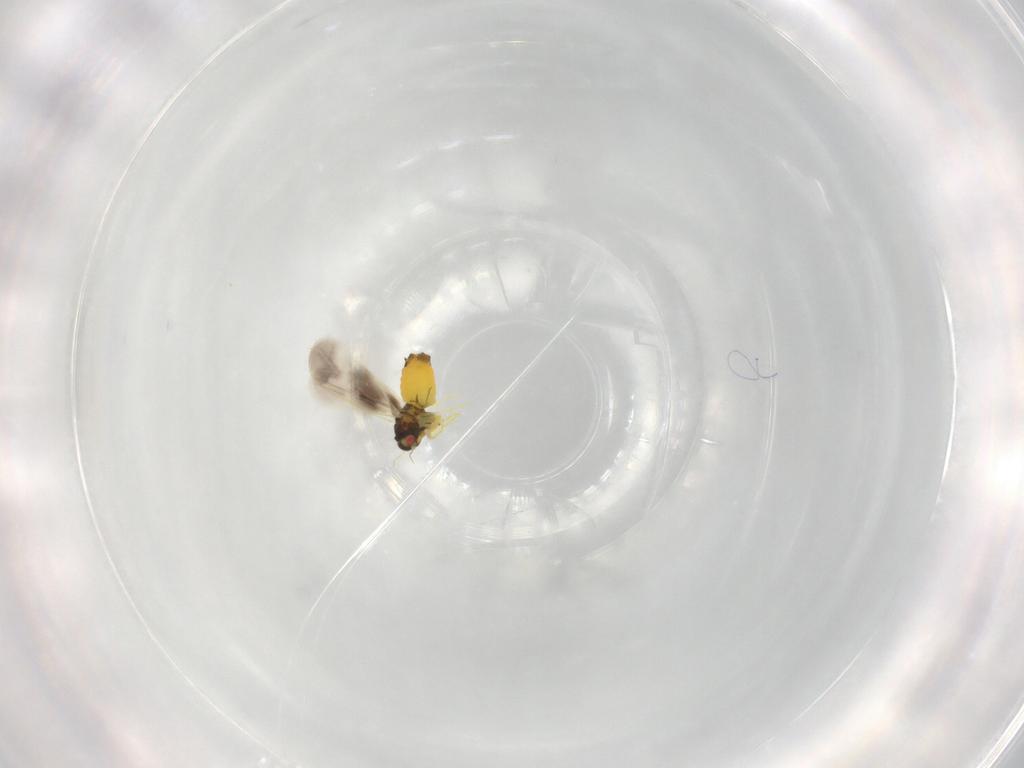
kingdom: Animalia
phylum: Arthropoda
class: Insecta
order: Hemiptera
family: Aleyrodidae
